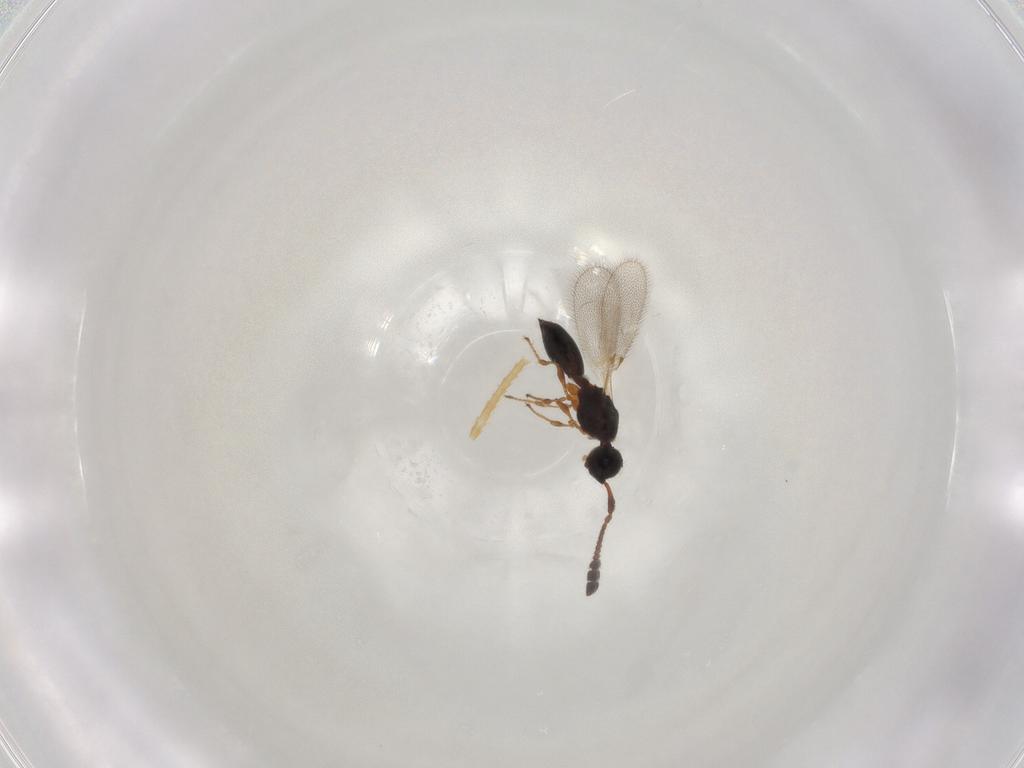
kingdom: Animalia
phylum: Arthropoda
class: Insecta
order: Hymenoptera
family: Diapriidae
